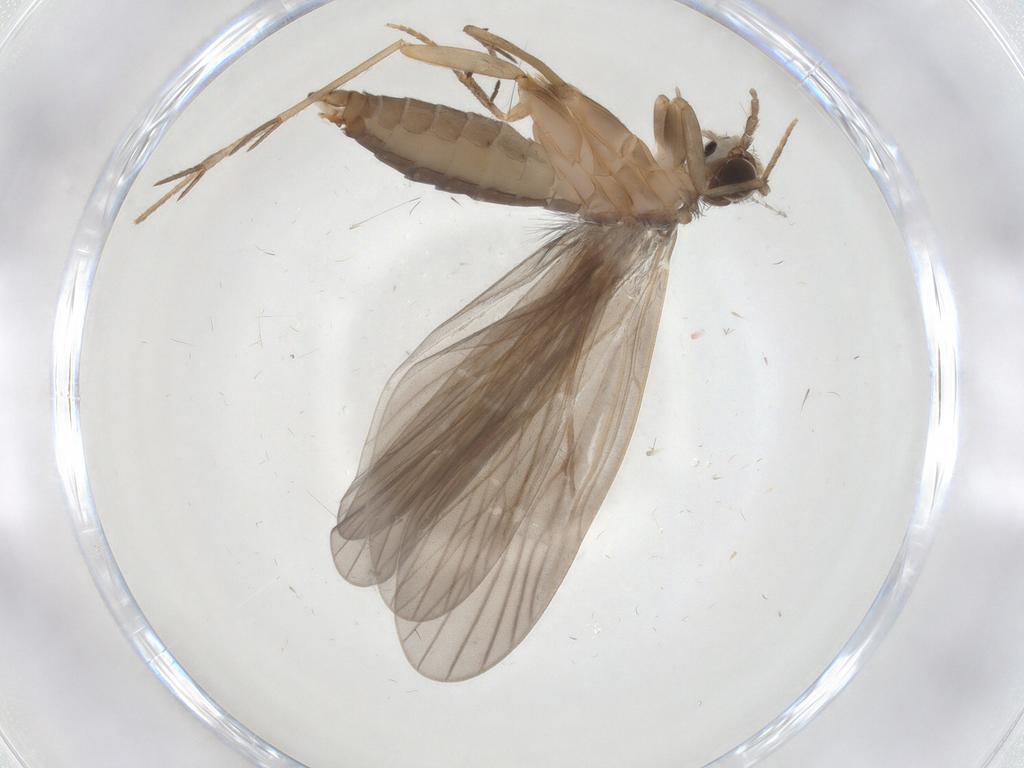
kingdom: Animalia
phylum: Arthropoda
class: Insecta
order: Trichoptera
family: Philopotamidae
